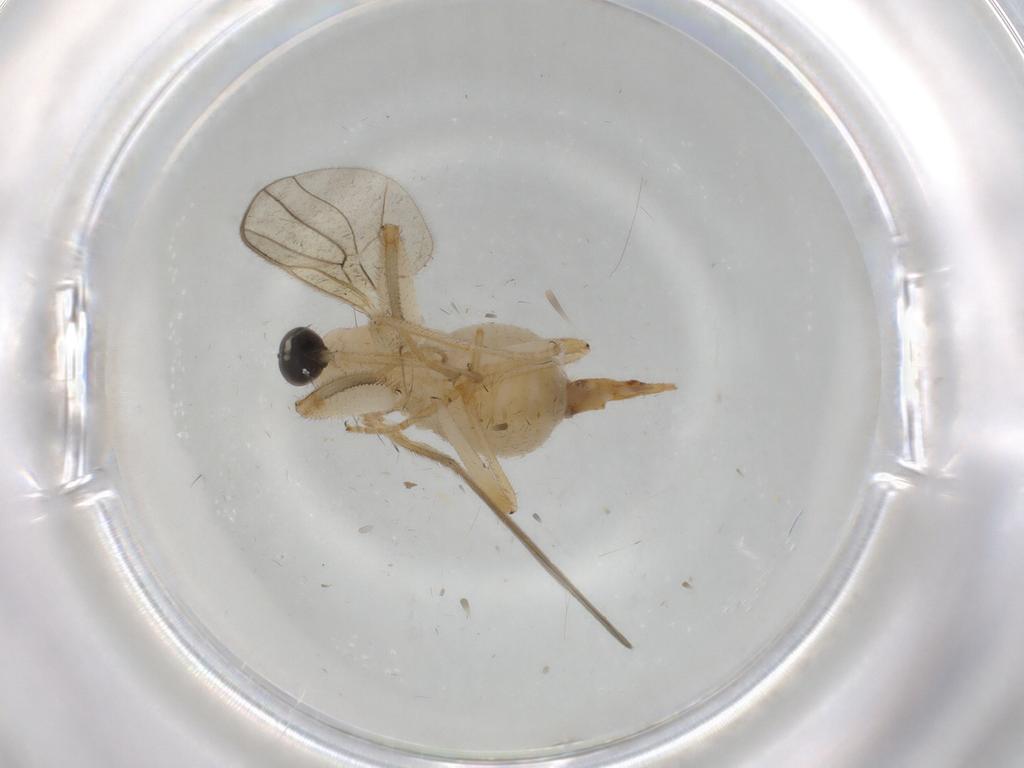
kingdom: Animalia
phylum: Arthropoda
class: Insecta
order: Diptera
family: Hybotidae
